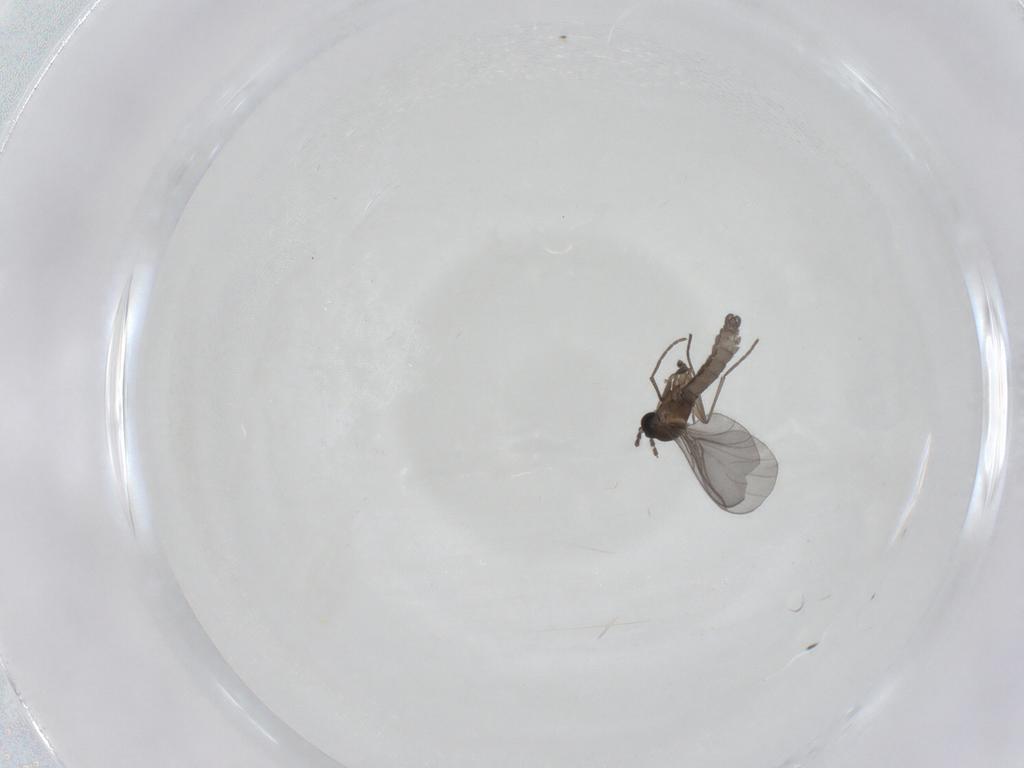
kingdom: Animalia
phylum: Arthropoda
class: Insecta
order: Diptera
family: Sciaridae
